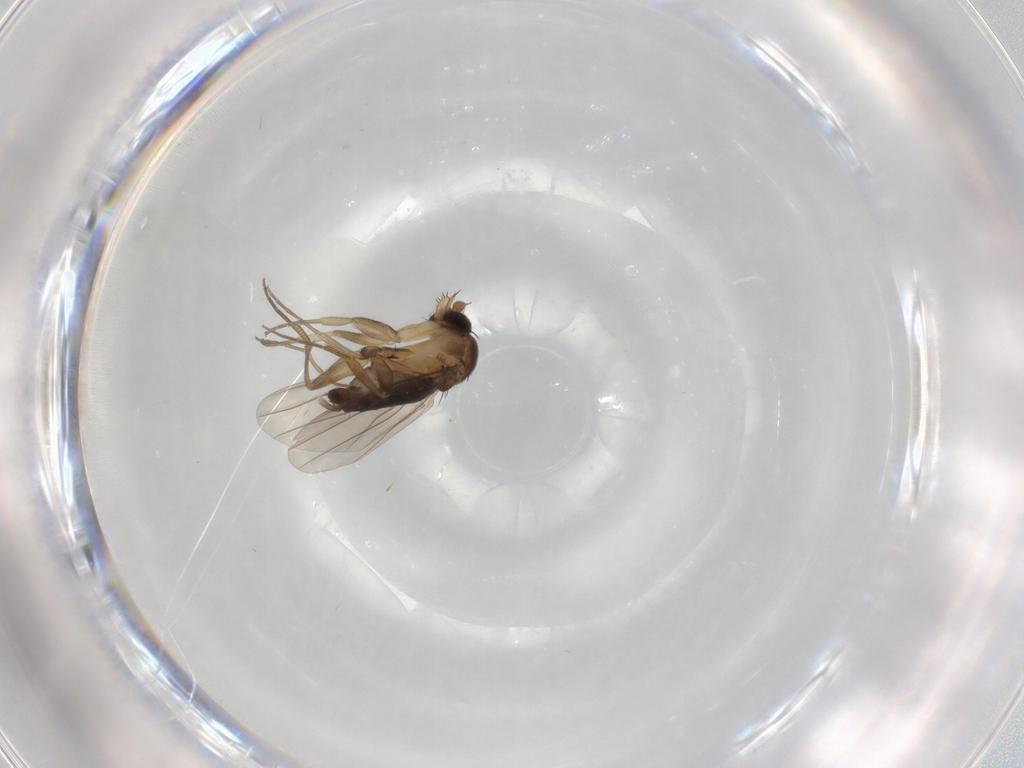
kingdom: Animalia
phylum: Arthropoda
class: Insecta
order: Diptera
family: Phoridae
